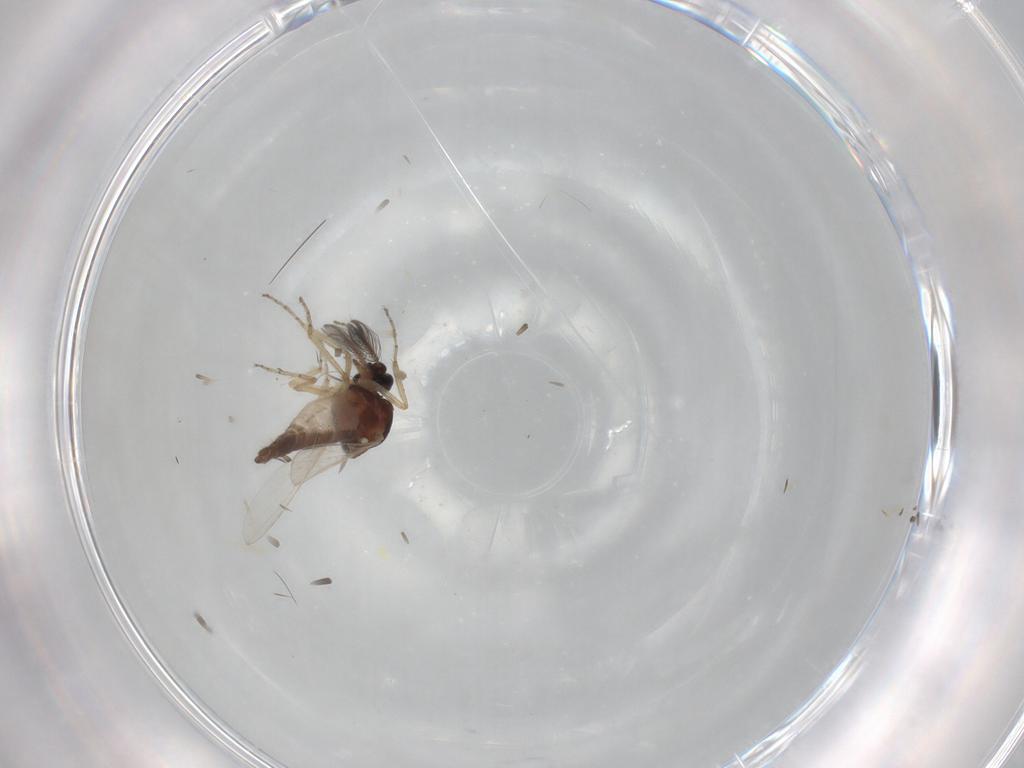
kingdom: Animalia
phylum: Arthropoda
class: Insecta
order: Diptera
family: Ceratopogonidae
